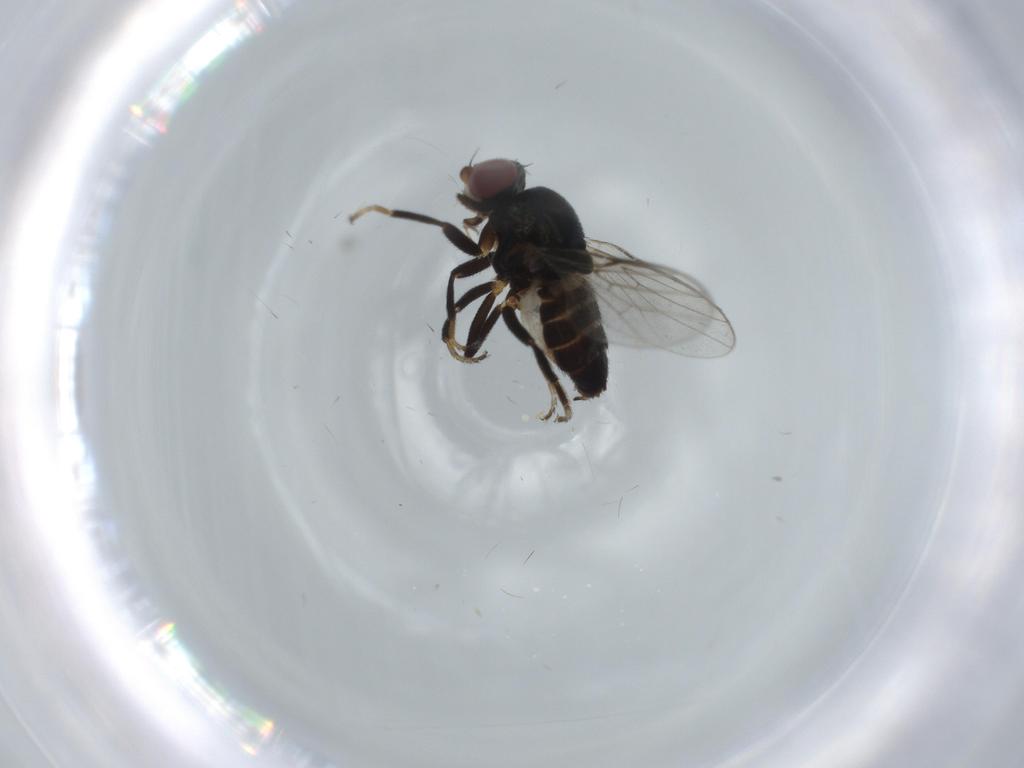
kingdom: Animalia
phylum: Arthropoda
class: Insecta
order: Diptera
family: Chloropidae
